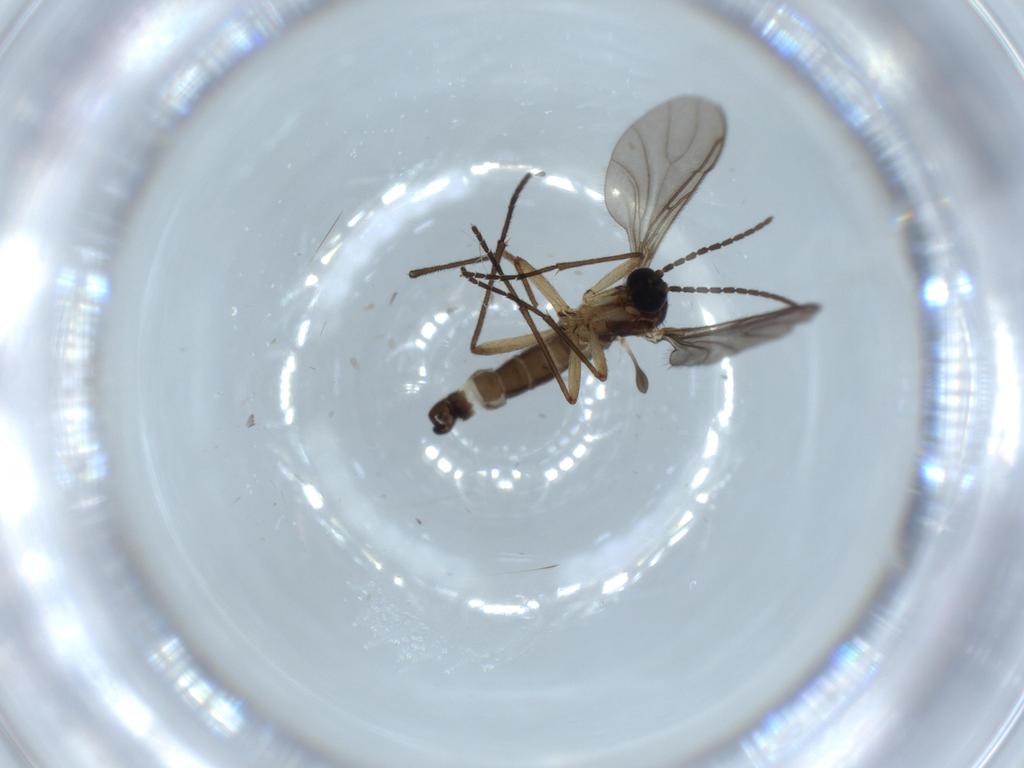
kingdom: Animalia
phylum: Arthropoda
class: Insecta
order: Diptera
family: Sciaridae
